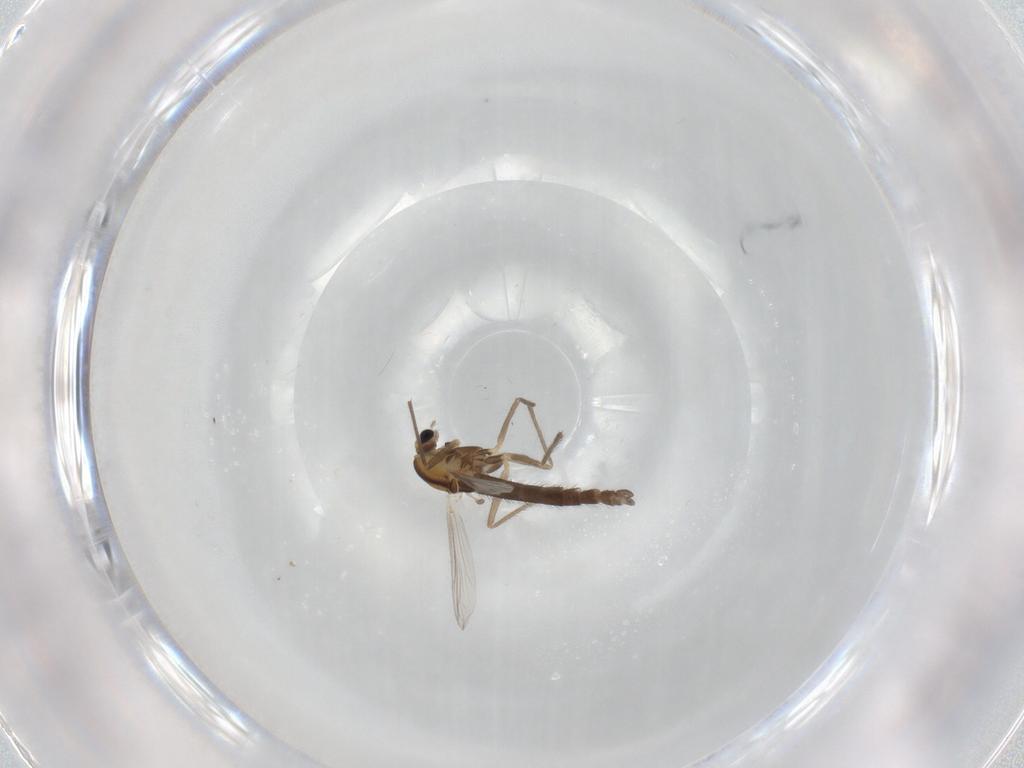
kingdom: Animalia
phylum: Arthropoda
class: Insecta
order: Diptera
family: Chironomidae
